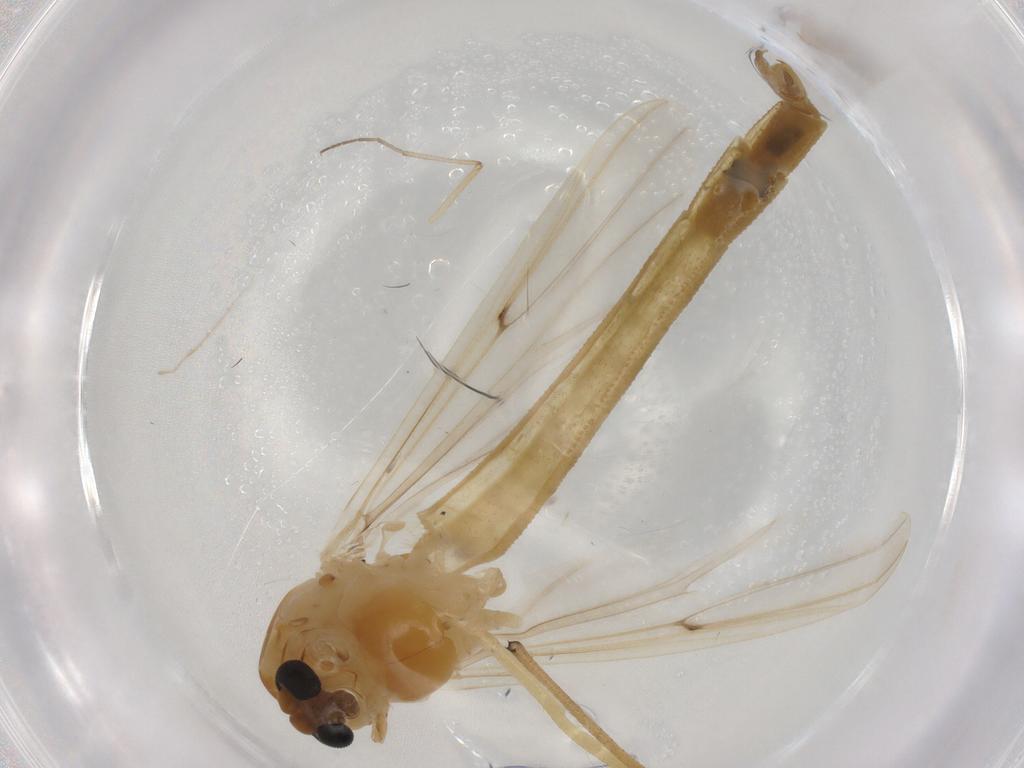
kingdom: Animalia
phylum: Arthropoda
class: Insecta
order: Diptera
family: Chironomidae
